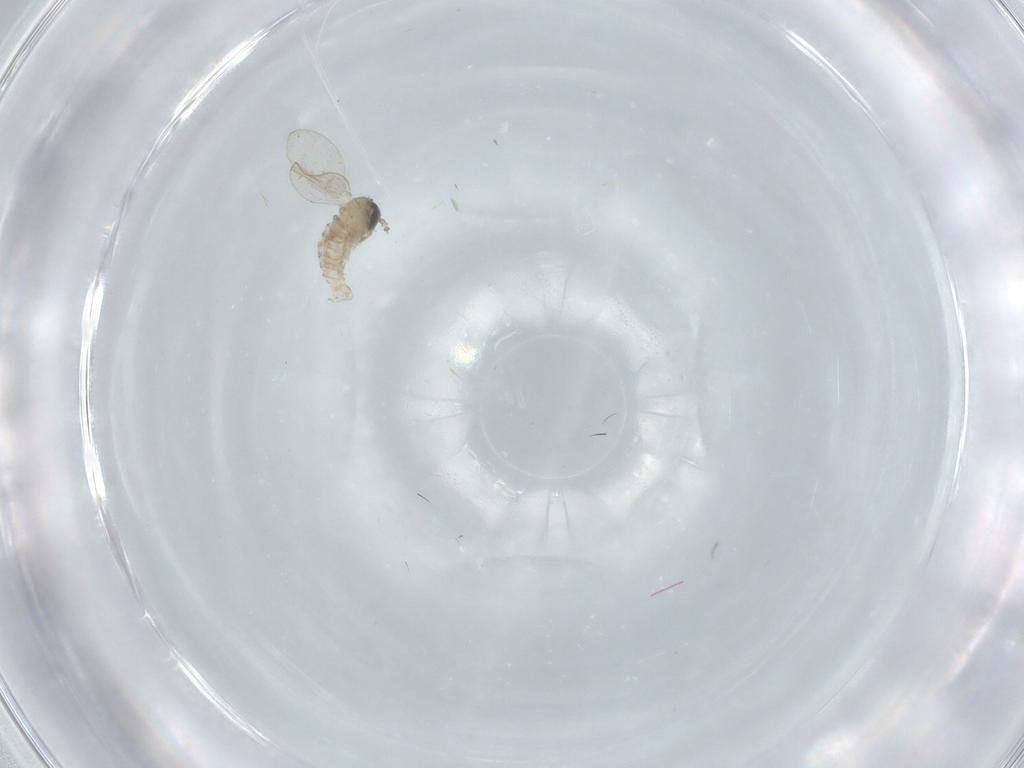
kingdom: Animalia
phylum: Arthropoda
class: Insecta
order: Diptera
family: Psychodidae
